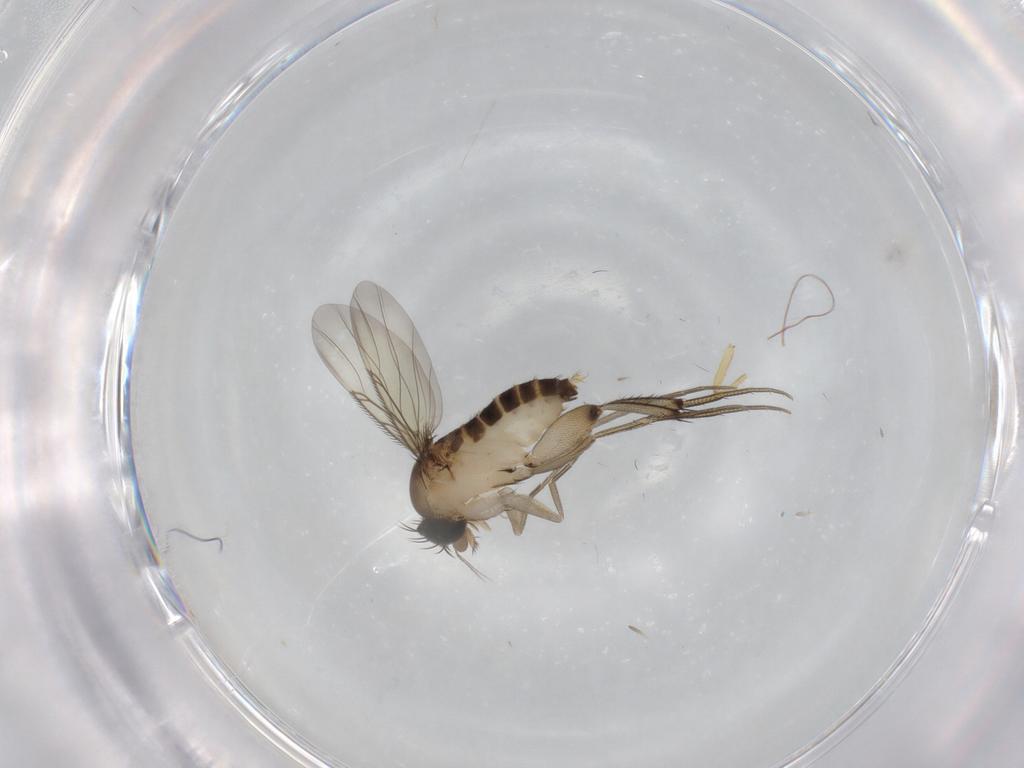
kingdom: Animalia
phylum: Arthropoda
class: Insecta
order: Diptera
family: Phoridae
